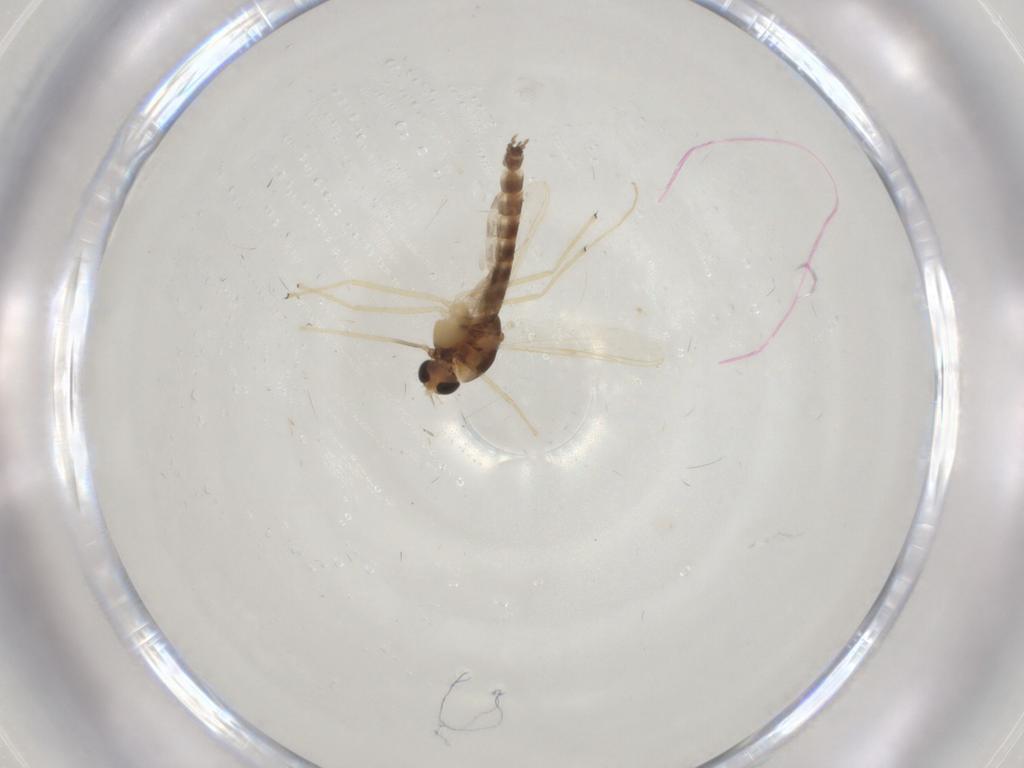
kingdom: Animalia
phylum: Arthropoda
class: Insecta
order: Diptera
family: Chironomidae
